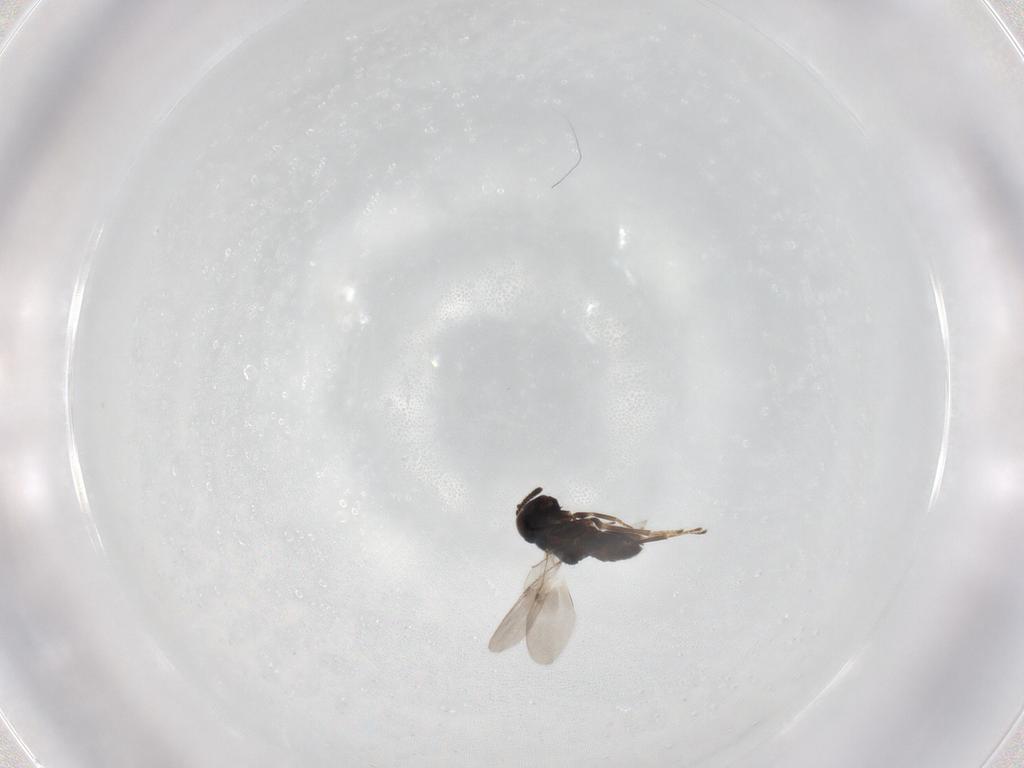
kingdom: Animalia
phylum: Arthropoda
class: Insecta
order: Hymenoptera
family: Encyrtidae
